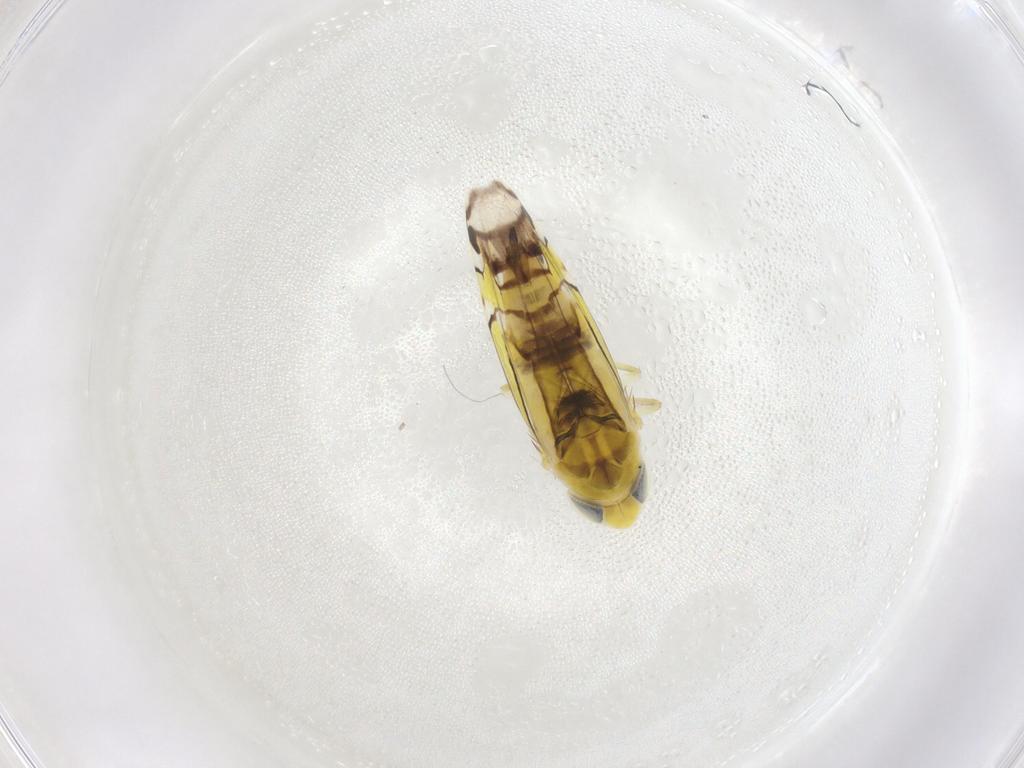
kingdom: Animalia
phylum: Arthropoda
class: Insecta
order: Hemiptera
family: Cicadellidae
